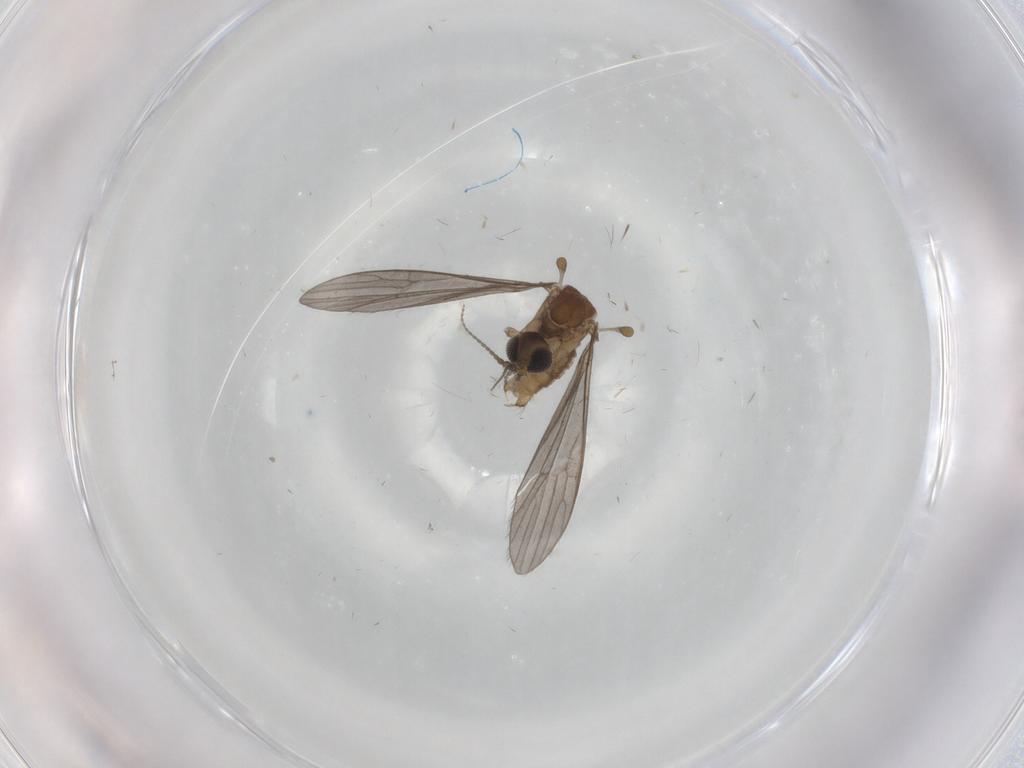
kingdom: Animalia
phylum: Arthropoda
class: Insecta
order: Diptera
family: Limoniidae
